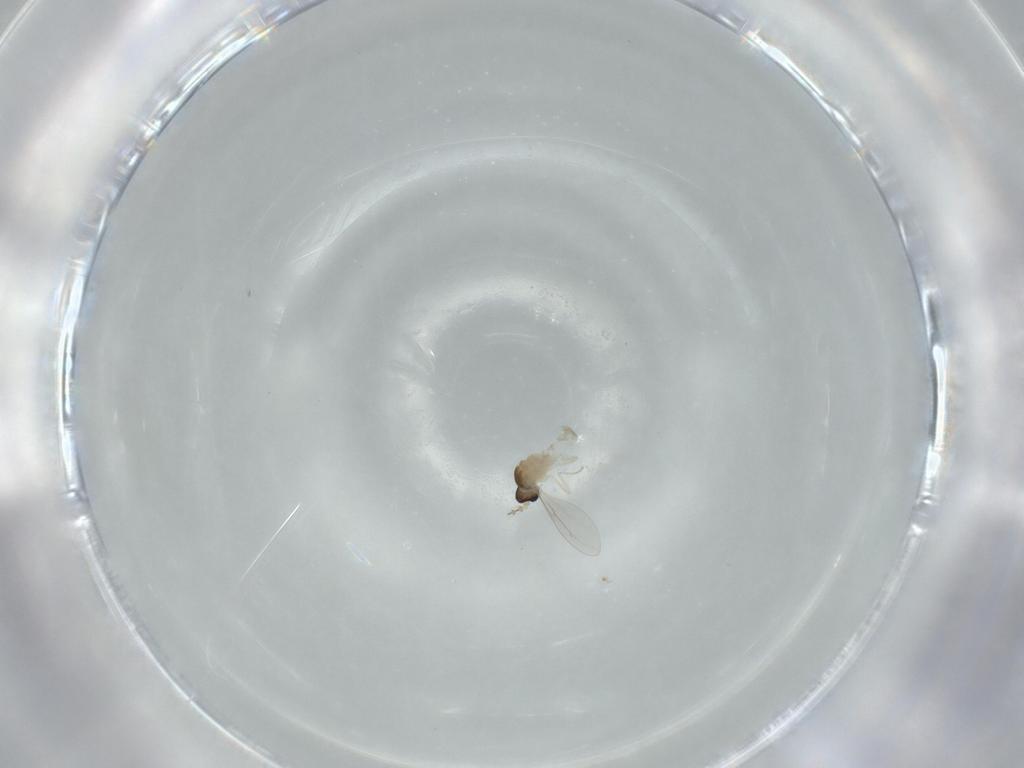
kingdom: Animalia
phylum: Arthropoda
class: Insecta
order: Diptera
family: Cecidomyiidae
